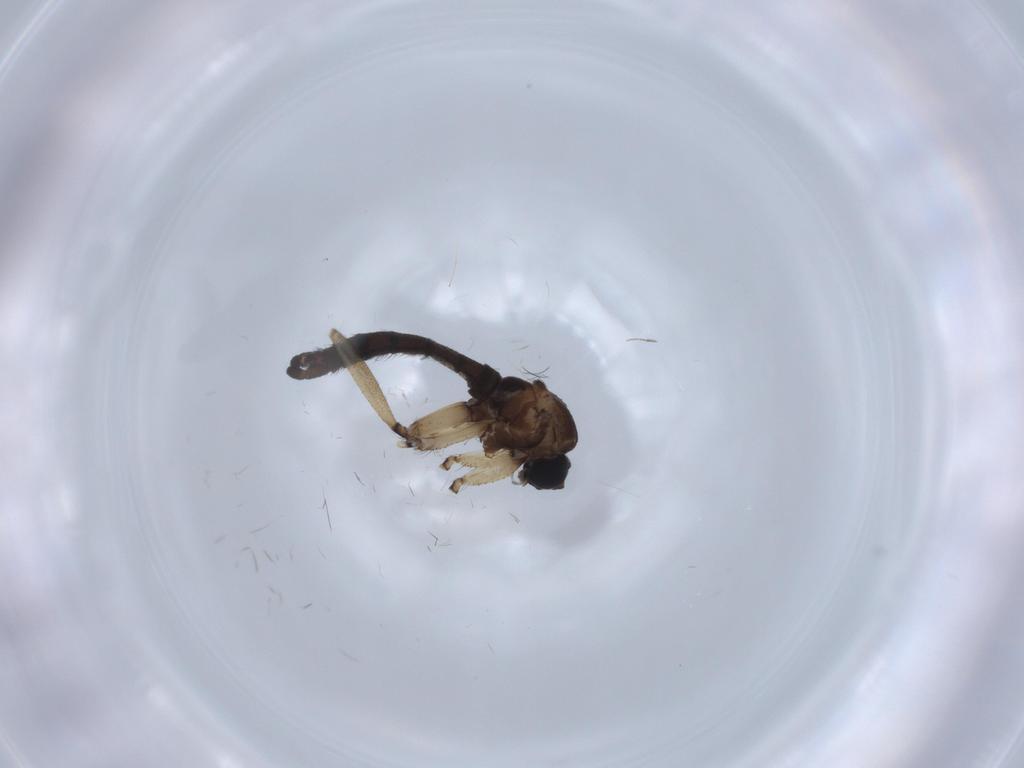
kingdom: Animalia
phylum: Arthropoda
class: Insecta
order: Diptera
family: Sciaridae
